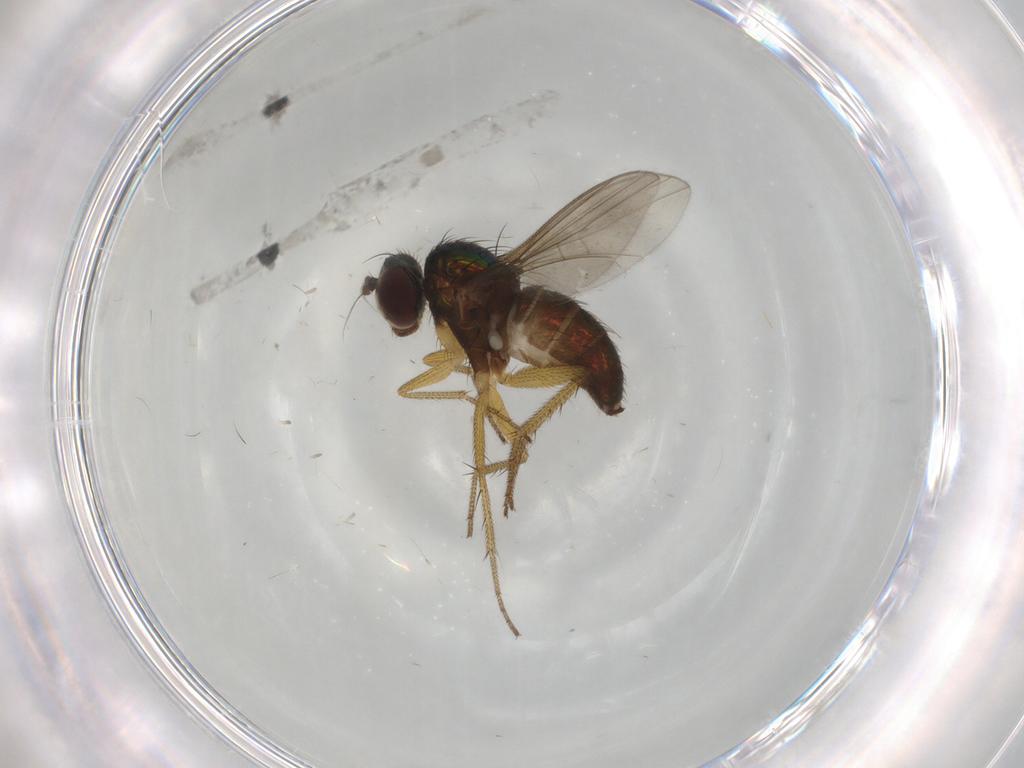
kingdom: Animalia
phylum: Arthropoda
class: Insecta
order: Diptera
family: Dolichopodidae
